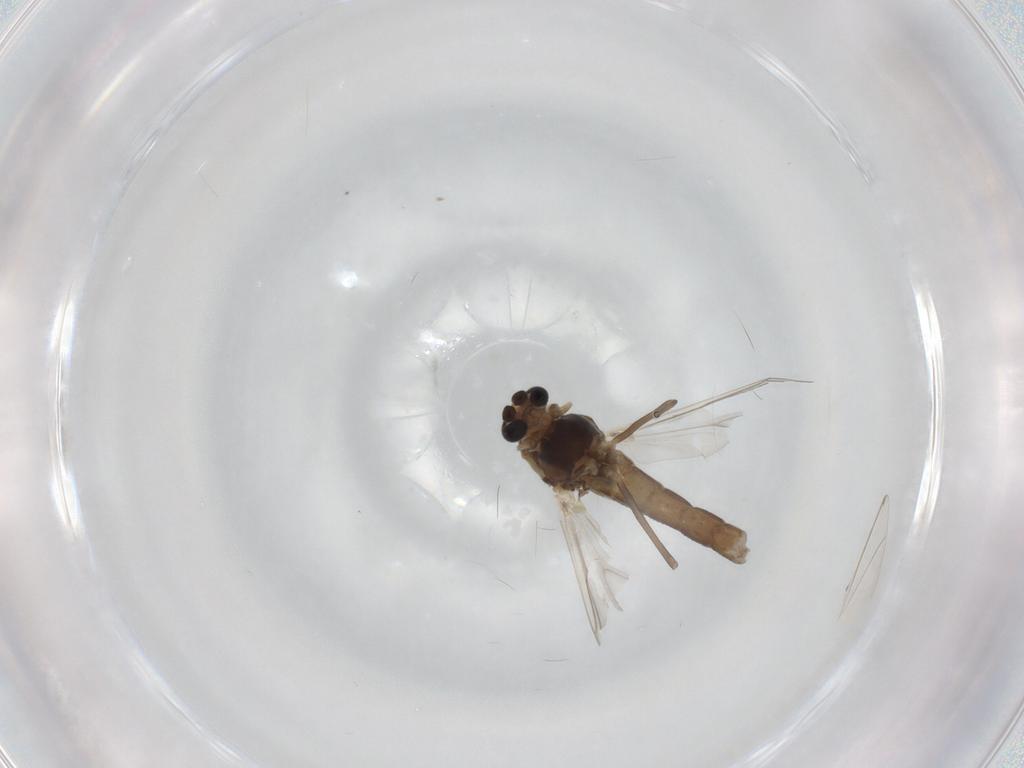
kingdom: Animalia
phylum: Arthropoda
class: Insecta
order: Diptera
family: Chironomidae
